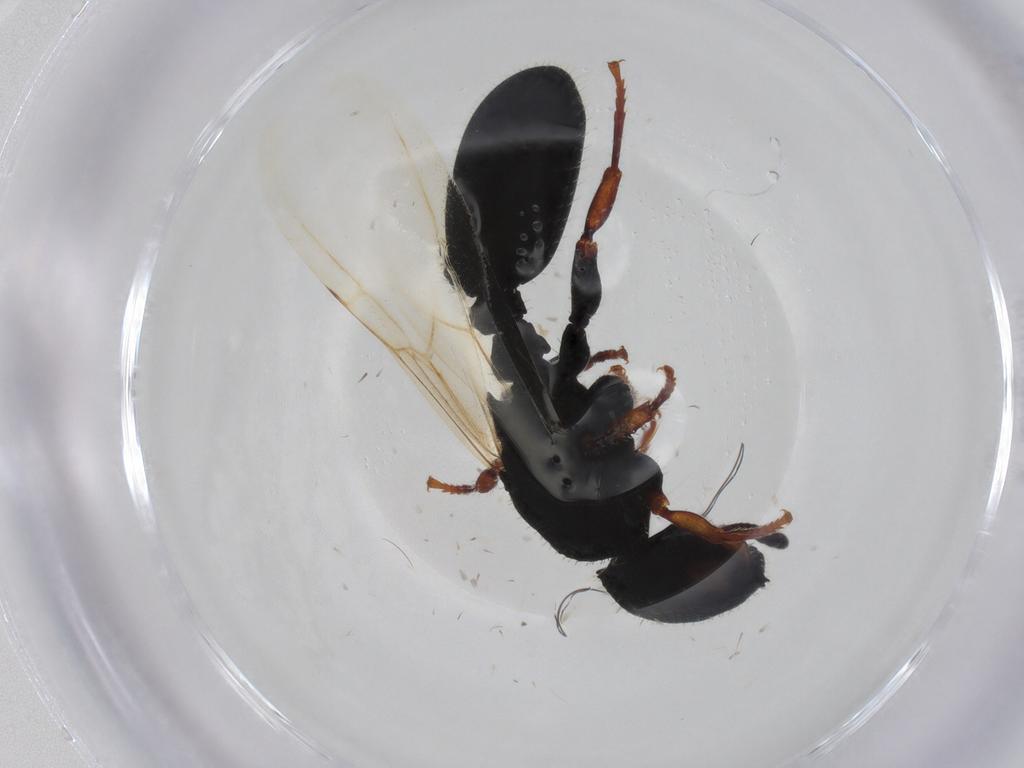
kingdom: Animalia
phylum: Arthropoda
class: Insecta
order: Hymenoptera
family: Formicidae
